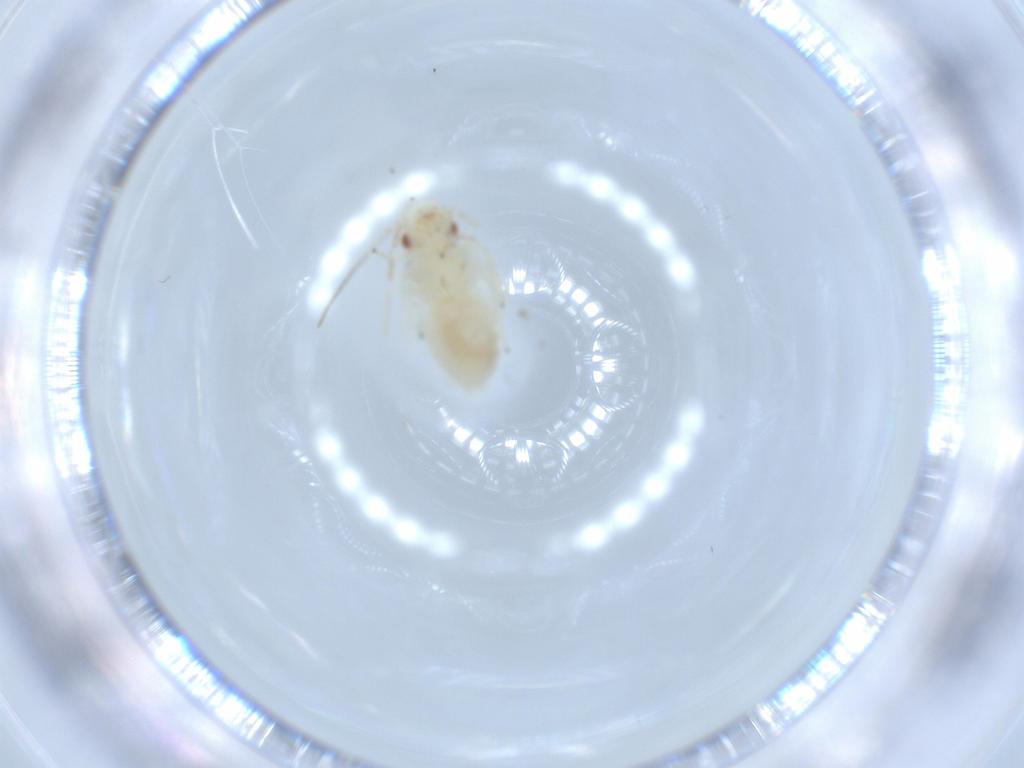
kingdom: Animalia
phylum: Arthropoda
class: Insecta
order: Psocodea
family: Caeciliusidae
